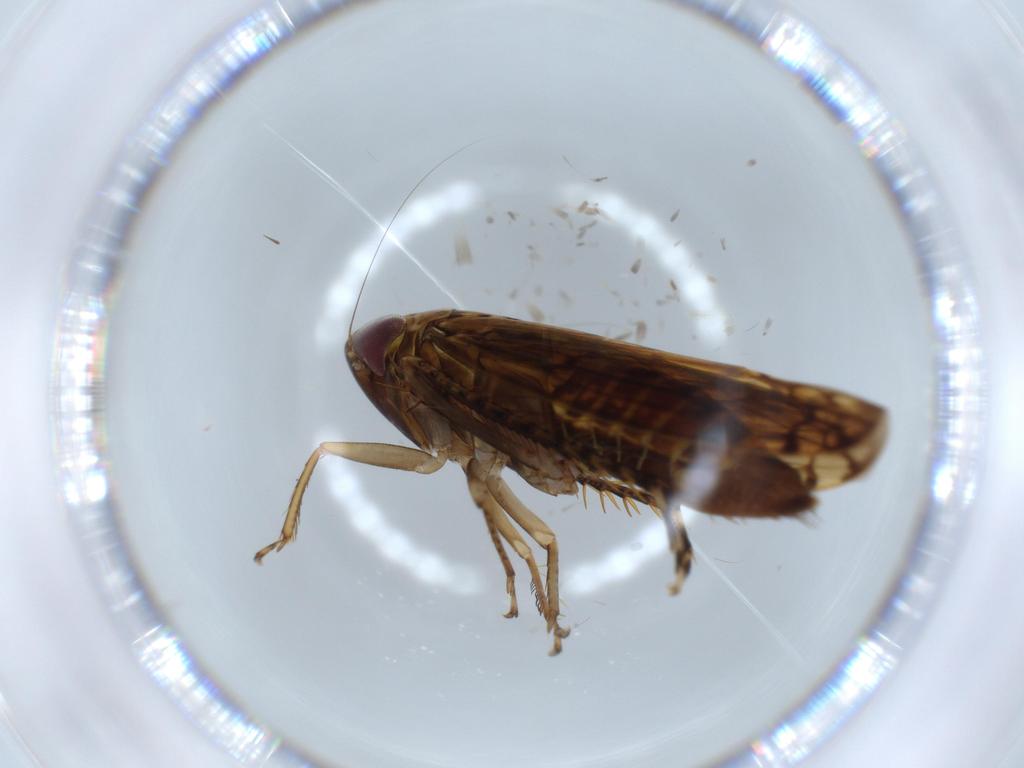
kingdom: Animalia
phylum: Arthropoda
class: Insecta
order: Hemiptera
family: Cicadellidae
